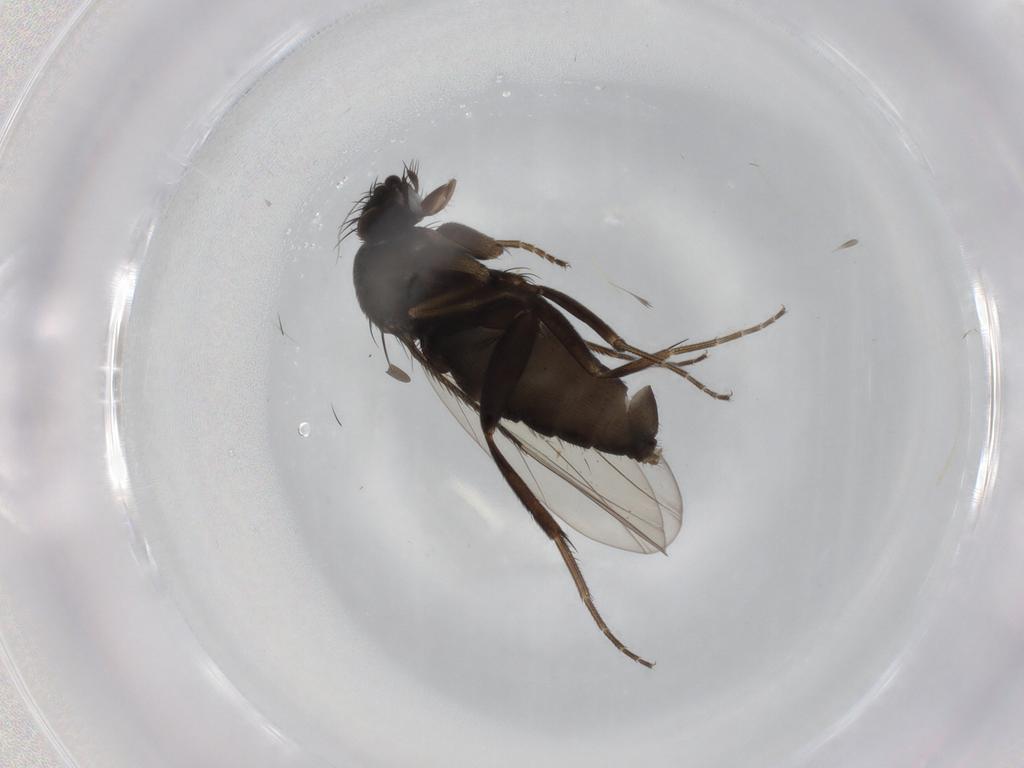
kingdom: Animalia
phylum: Arthropoda
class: Insecta
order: Diptera
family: Phoridae
